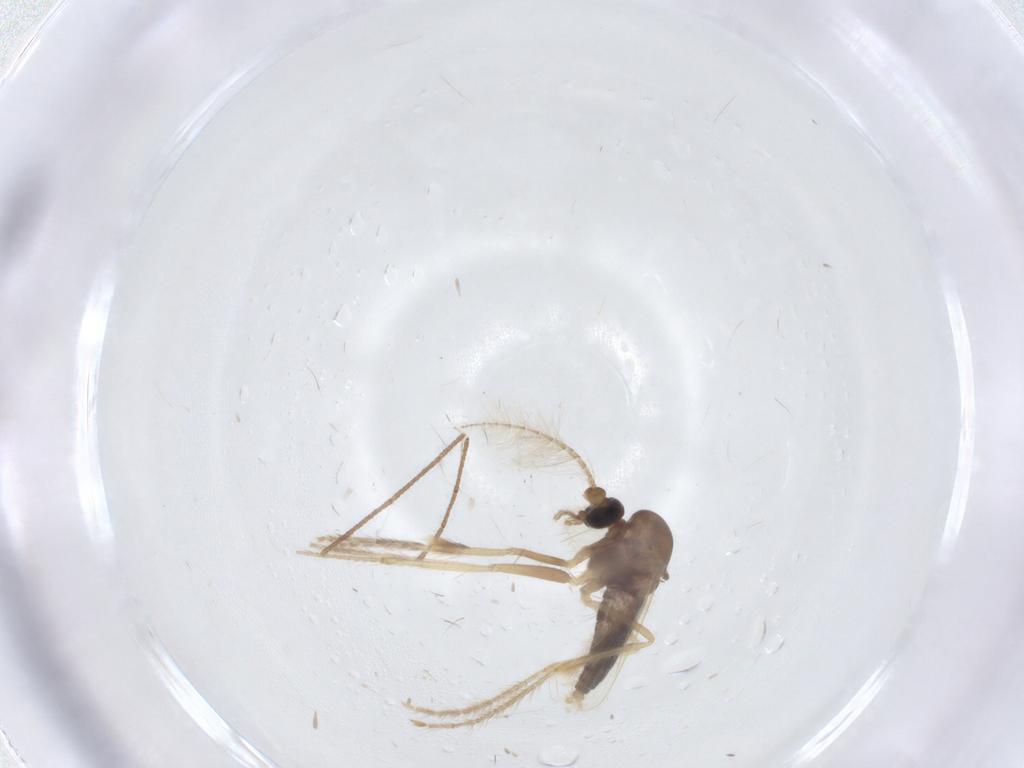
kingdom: Animalia
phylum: Arthropoda
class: Insecta
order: Diptera
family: Corethrellidae
